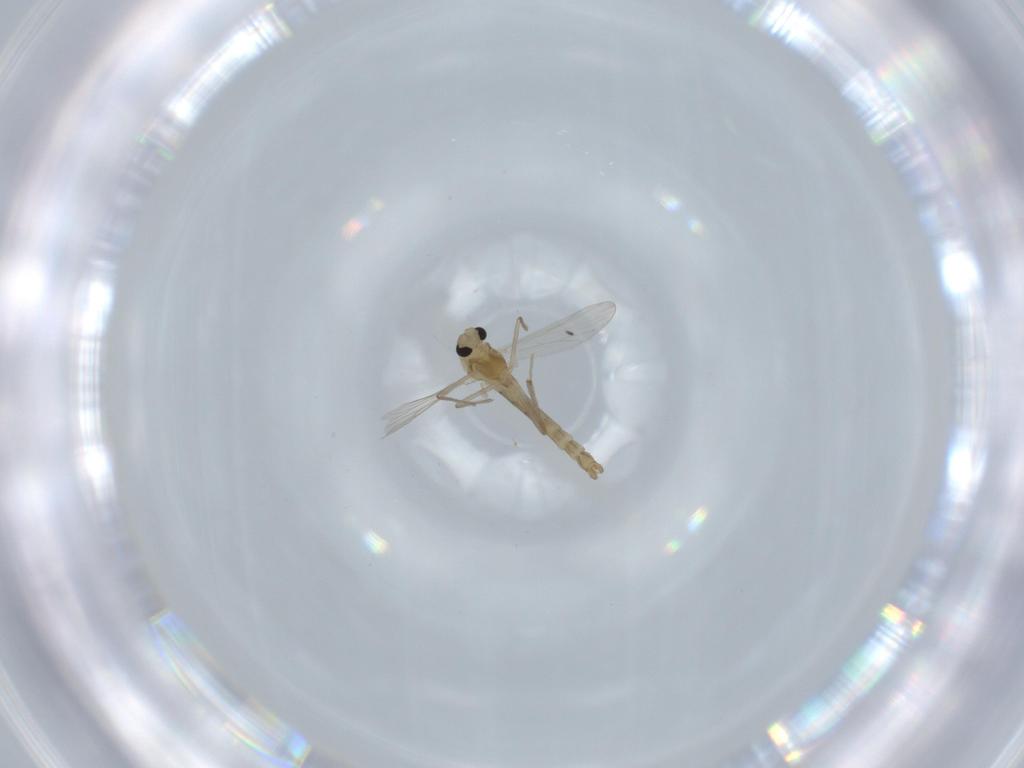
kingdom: Animalia
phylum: Arthropoda
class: Insecta
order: Diptera
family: Chironomidae
